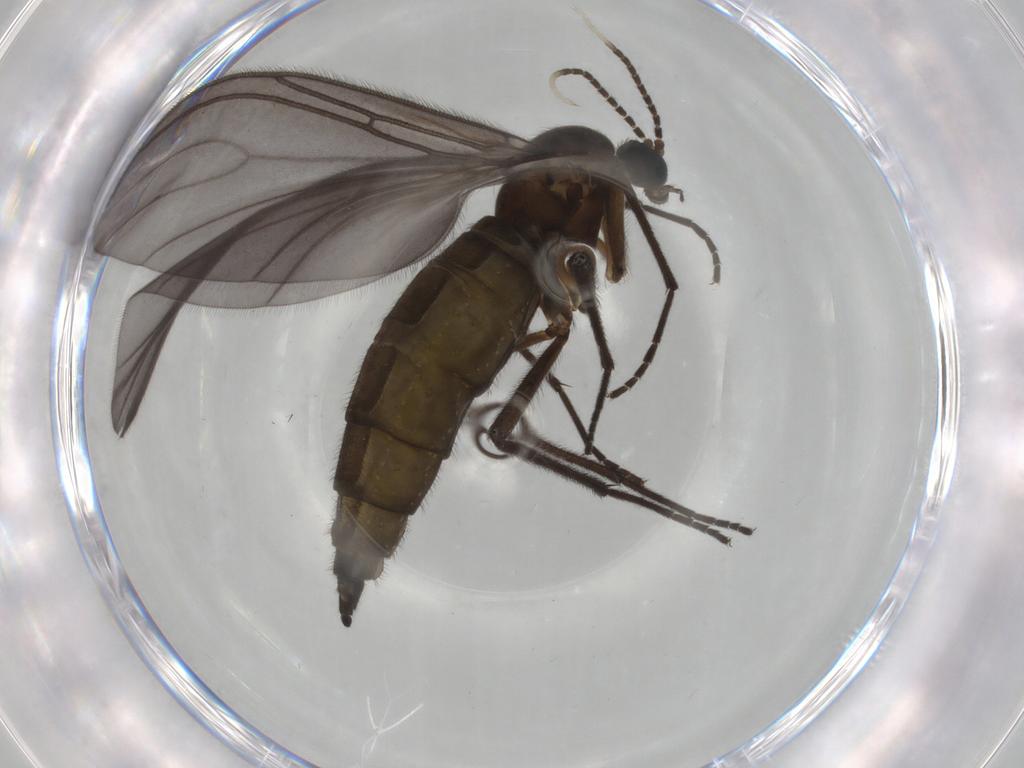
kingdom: Animalia
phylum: Arthropoda
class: Insecta
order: Diptera
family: Sciaridae
